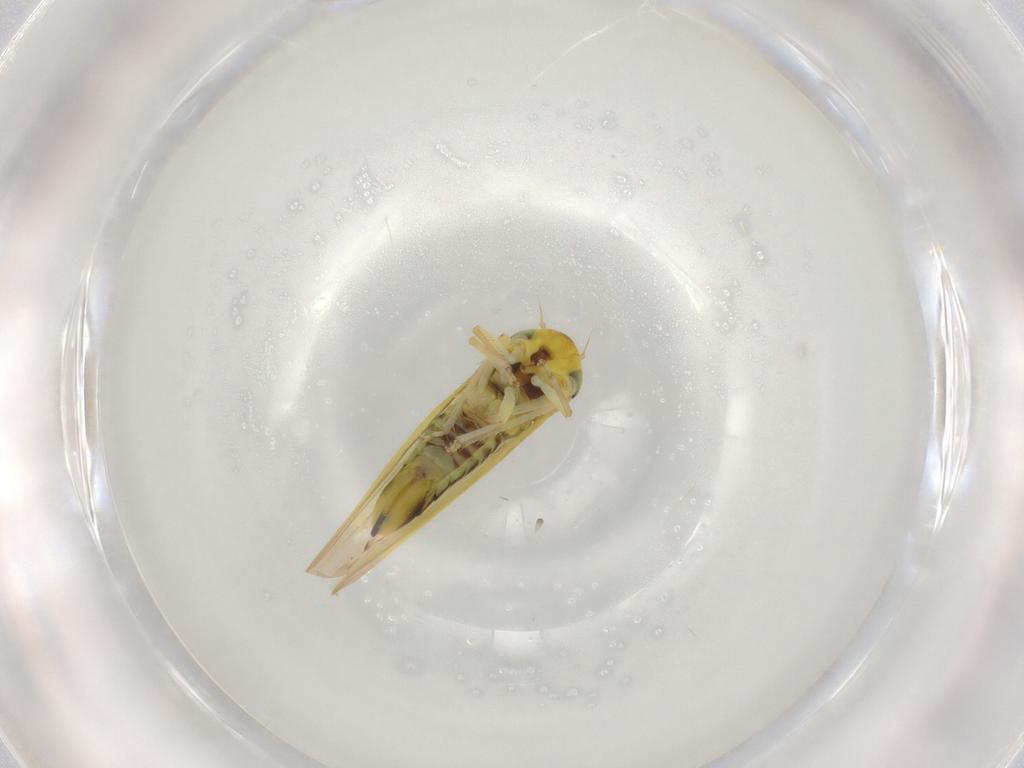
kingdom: Animalia
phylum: Arthropoda
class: Insecta
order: Hemiptera
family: Cicadellidae
